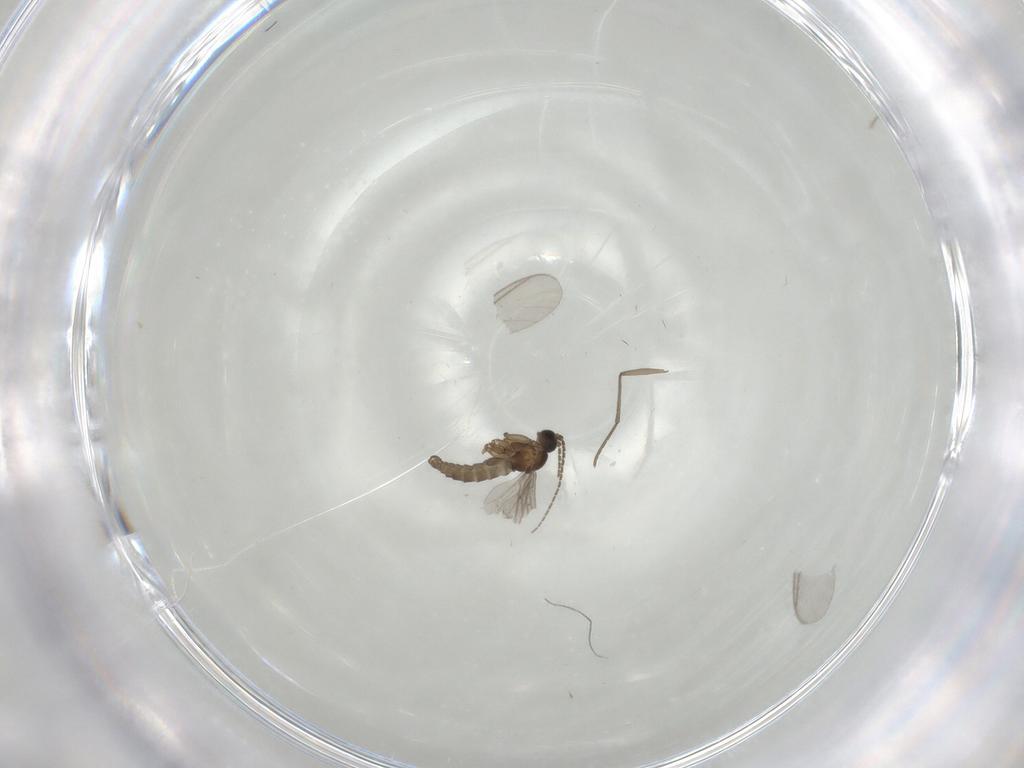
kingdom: Animalia
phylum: Arthropoda
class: Insecta
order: Diptera
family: Sciaridae
